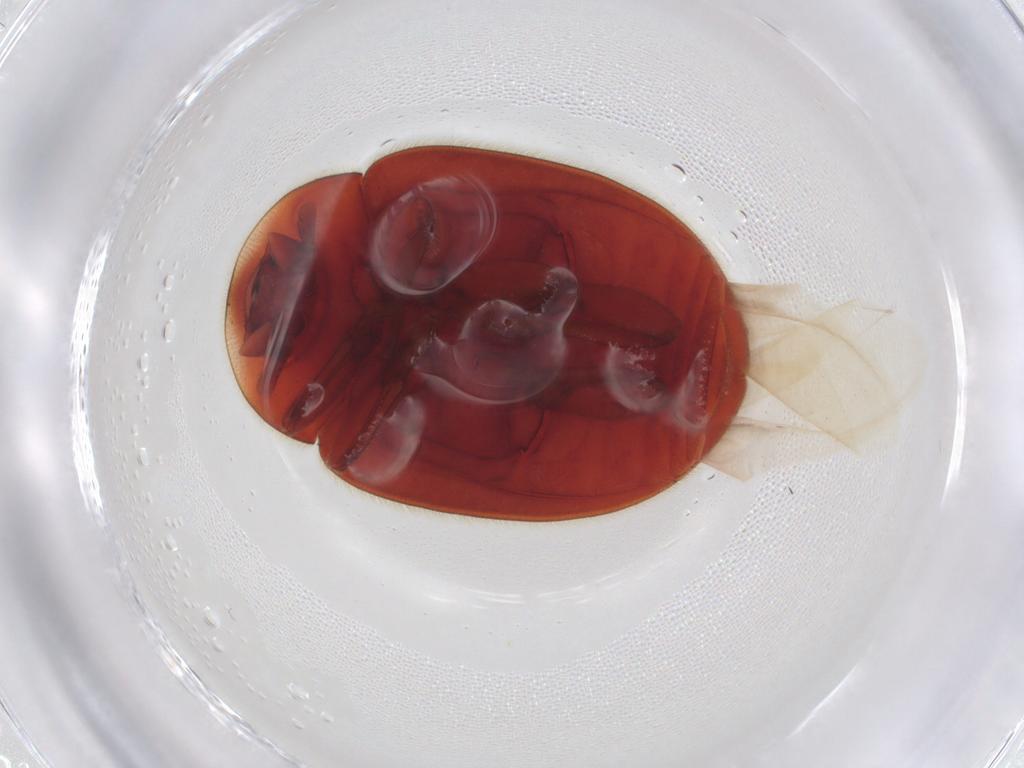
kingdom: Animalia
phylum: Arthropoda
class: Insecta
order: Coleoptera
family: Coccinellidae
